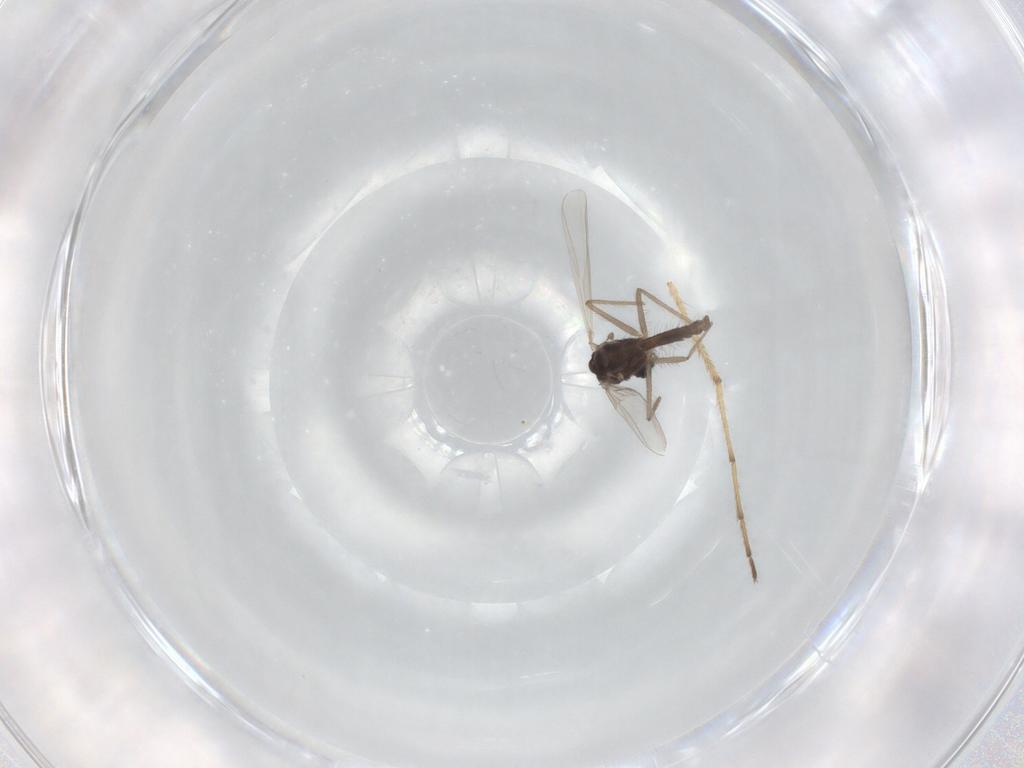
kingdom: Animalia
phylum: Arthropoda
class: Insecta
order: Diptera
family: Chironomidae
